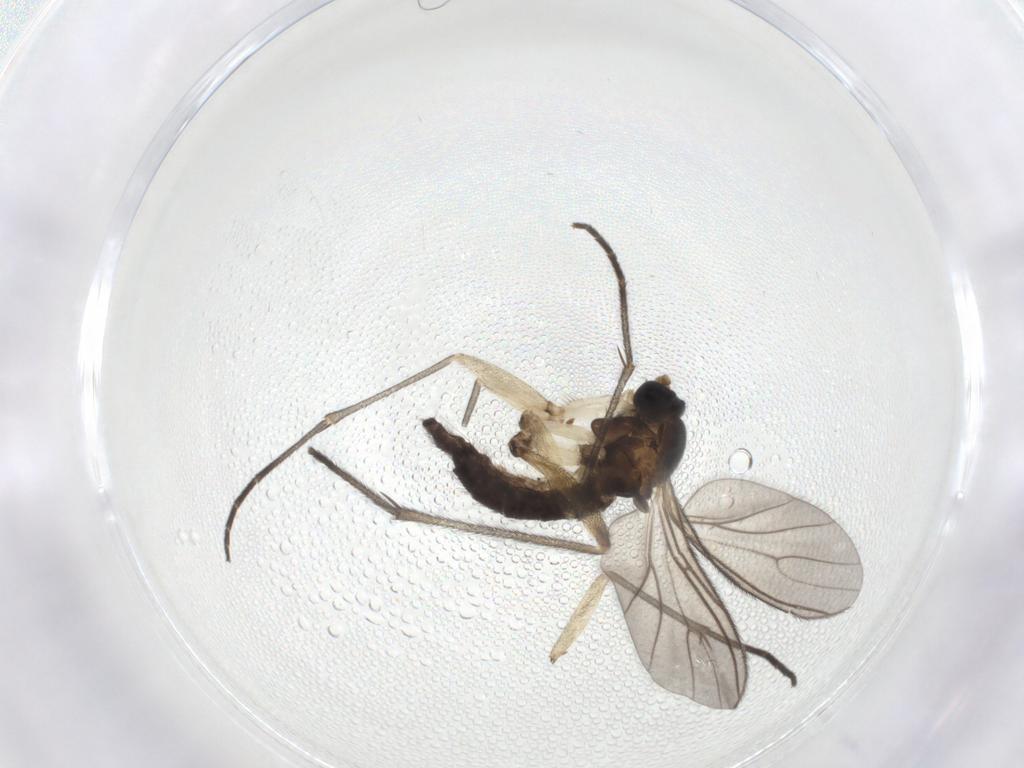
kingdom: Animalia
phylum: Arthropoda
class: Insecta
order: Diptera
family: Sciaridae
